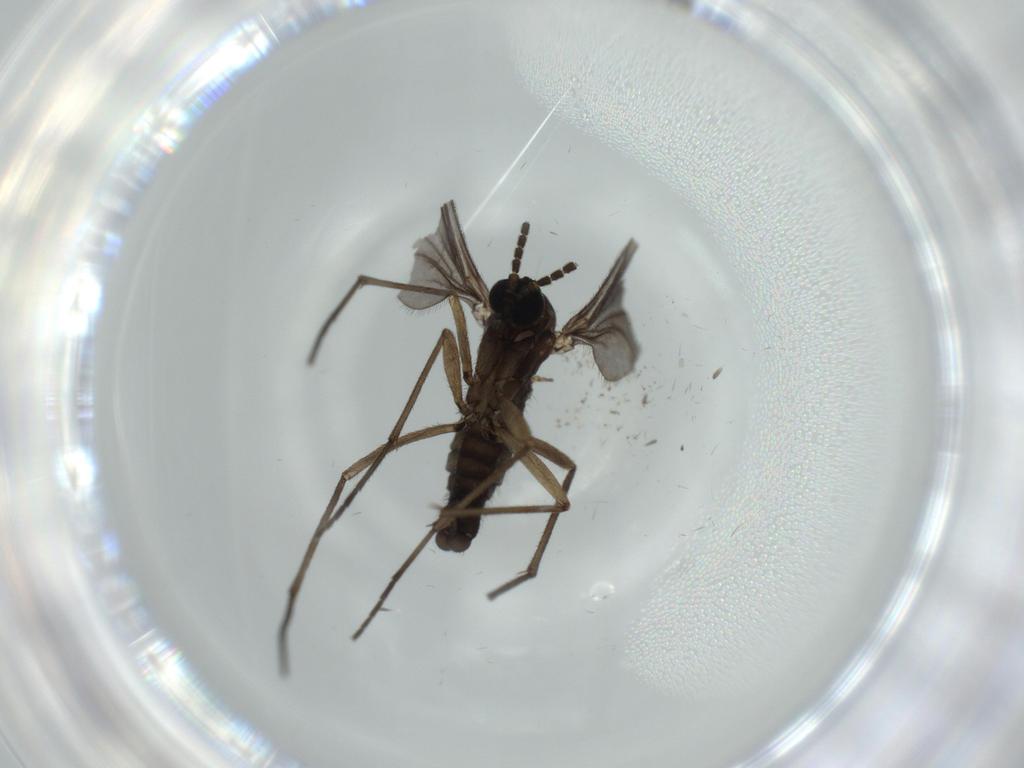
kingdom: Animalia
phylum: Arthropoda
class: Insecta
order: Diptera
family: Sciaridae
